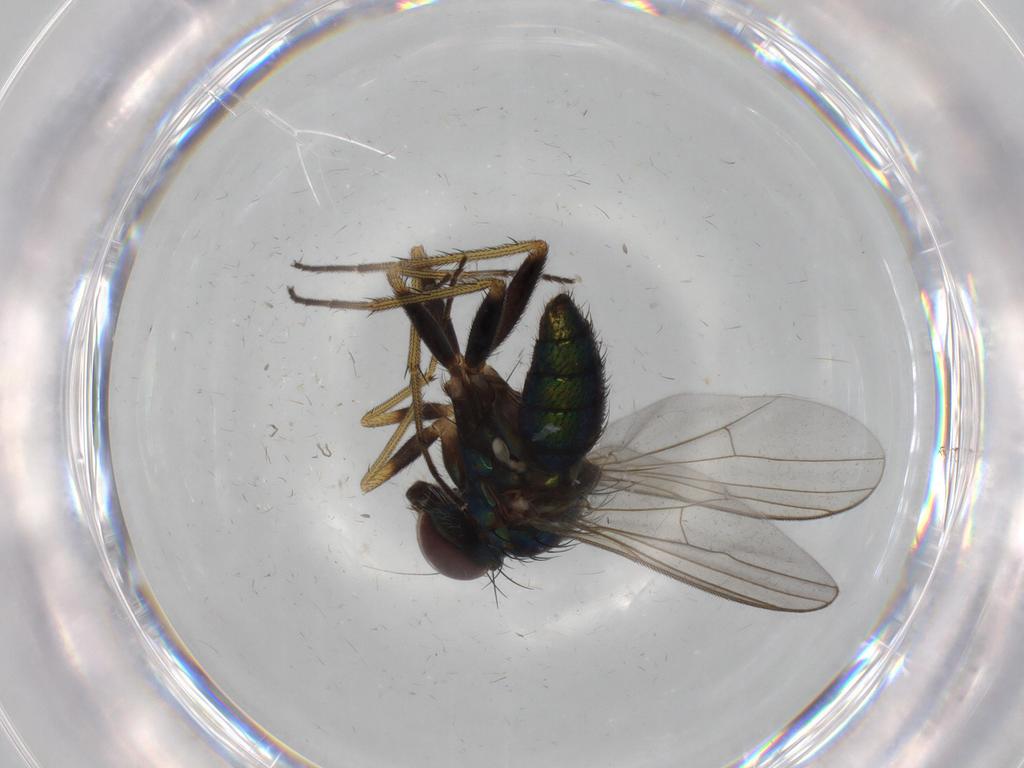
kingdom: Animalia
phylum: Arthropoda
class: Insecta
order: Diptera
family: Dolichopodidae
